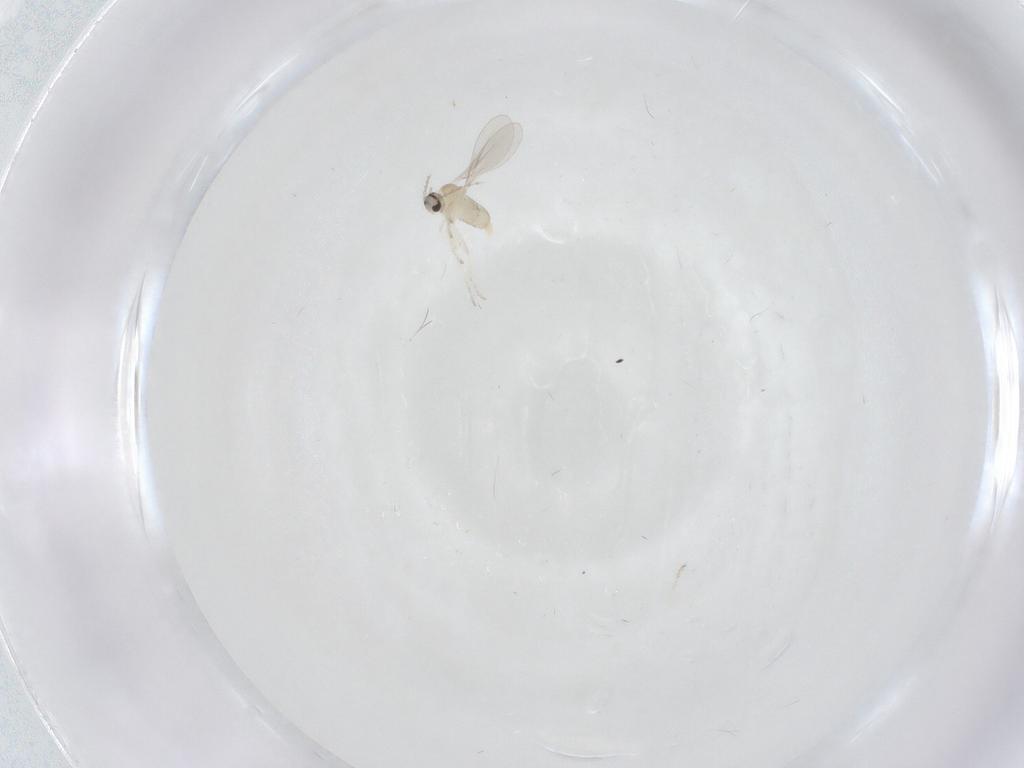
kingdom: Animalia
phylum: Arthropoda
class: Insecta
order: Diptera
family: Cecidomyiidae
